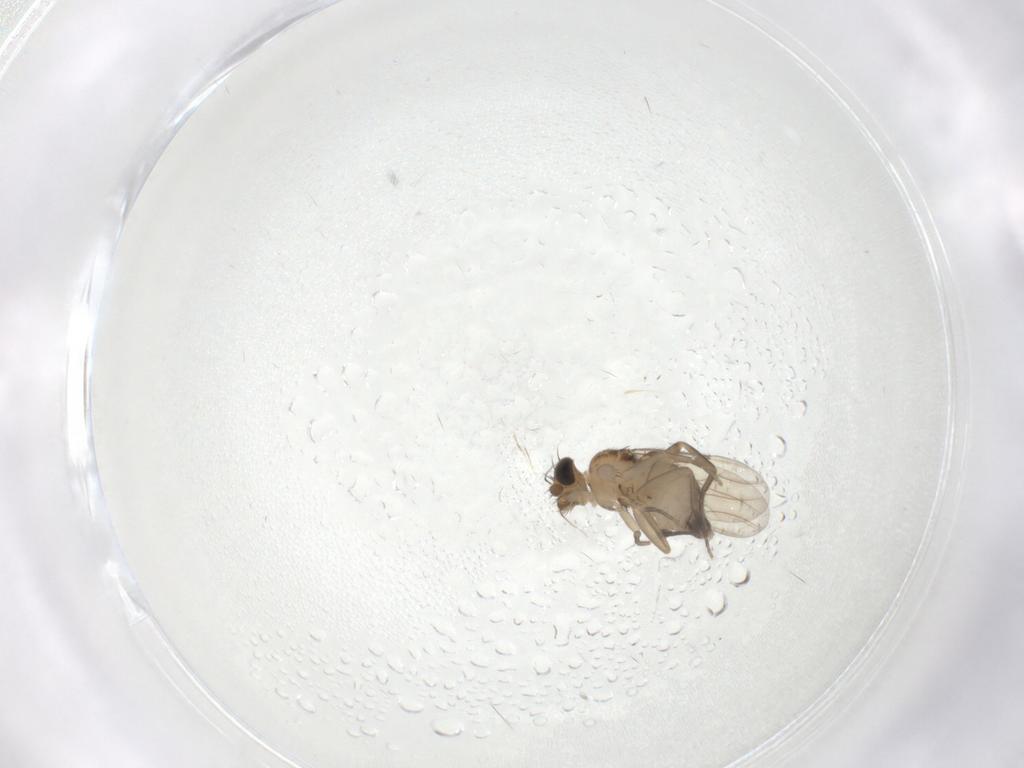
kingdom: Animalia
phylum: Arthropoda
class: Insecta
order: Diptera
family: Phoridae
